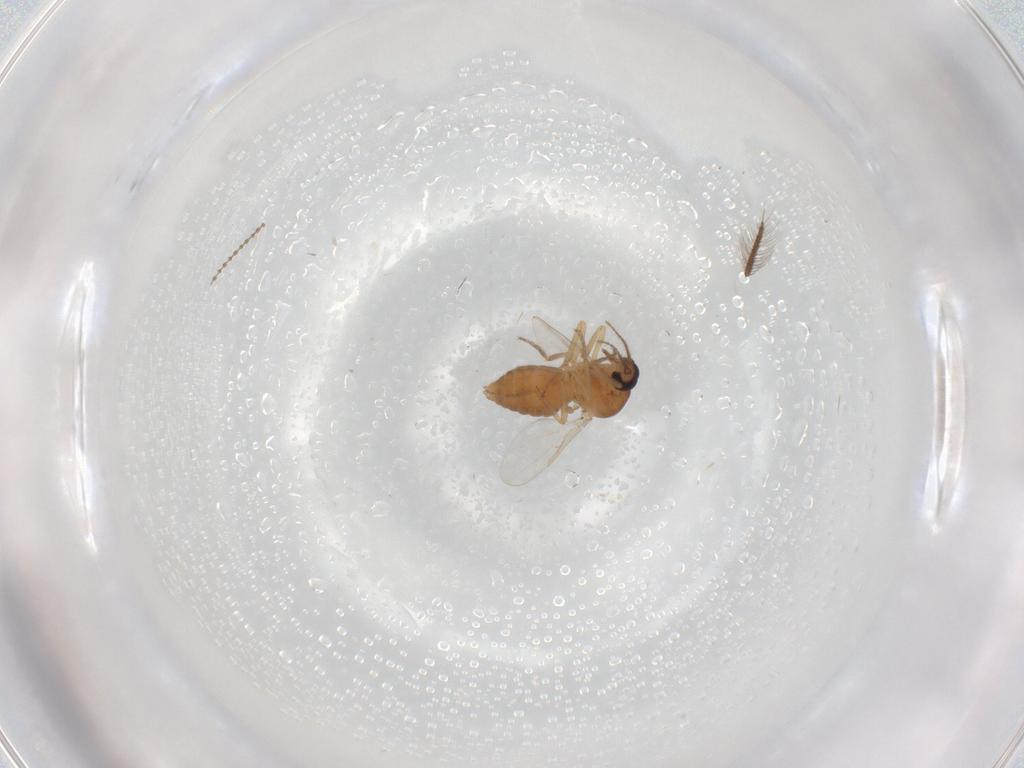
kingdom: Animalia
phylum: Arthropoda
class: Insecta
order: Diptera
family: Ceratopogonidae
